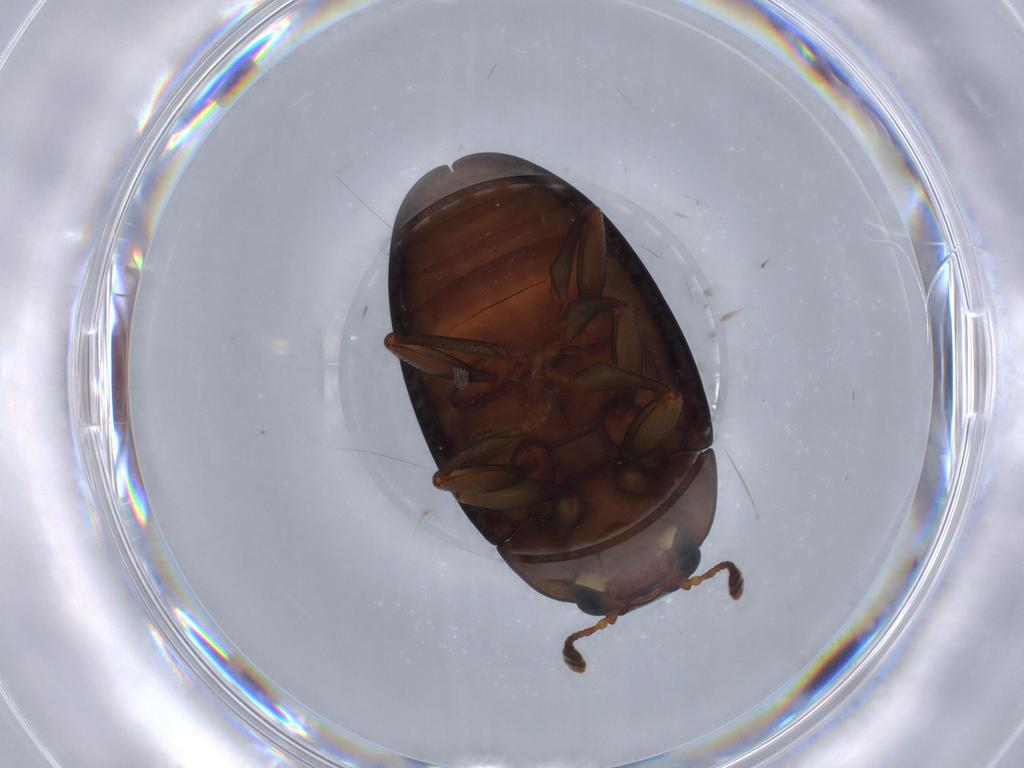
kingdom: Animalia
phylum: Arthropoda
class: Insecta
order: Coleoptera
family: Erotylidae
